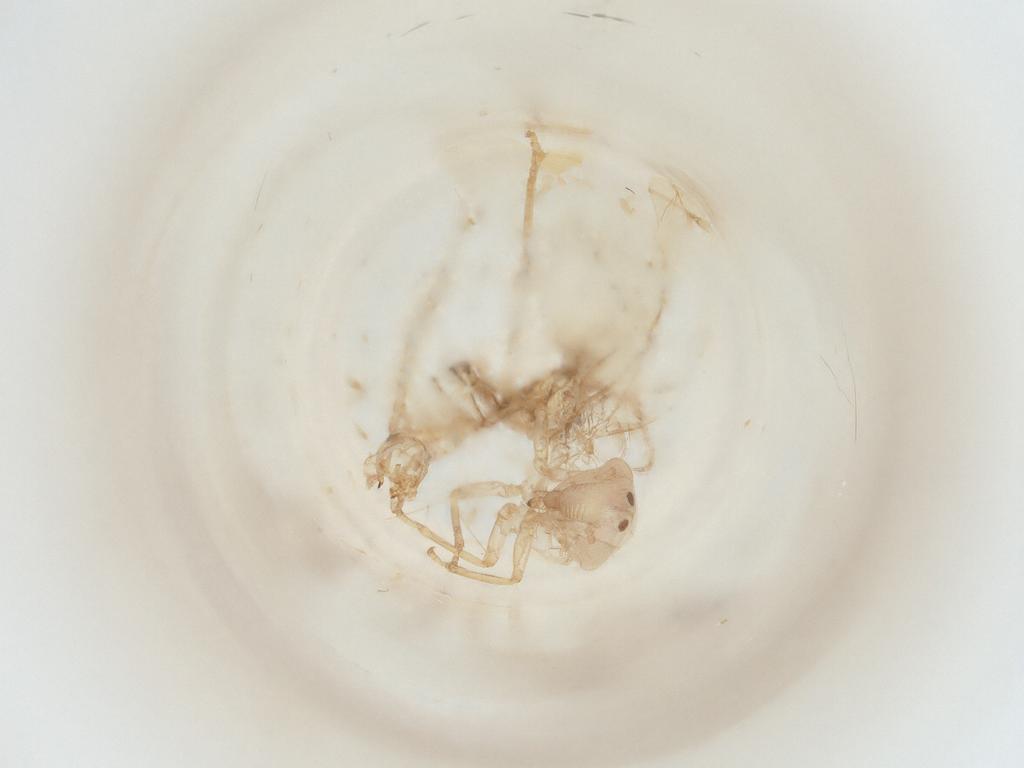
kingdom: Animalia
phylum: Arthropoda
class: Insecta
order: Hemiptera
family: Cicadellidae
